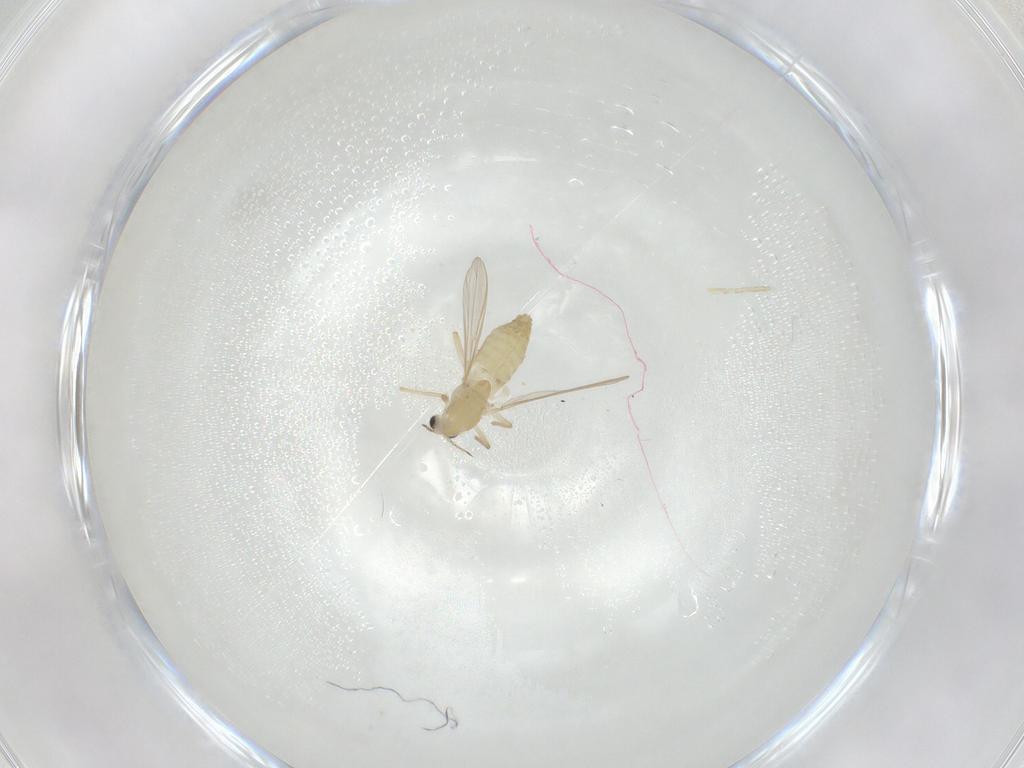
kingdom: Animalia
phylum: Arthropoda
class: Insecta
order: Diptera
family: Chironomidae
